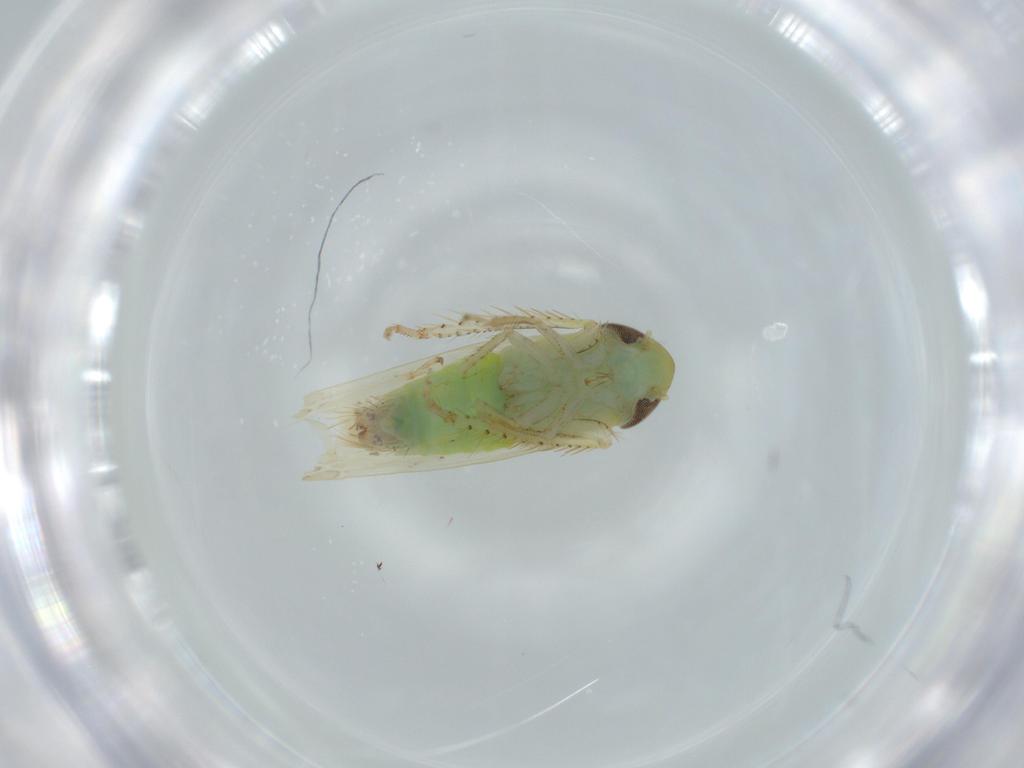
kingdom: Animalia
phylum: Arthropoda
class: Insecta
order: Hemiptera
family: Cicadellidae
